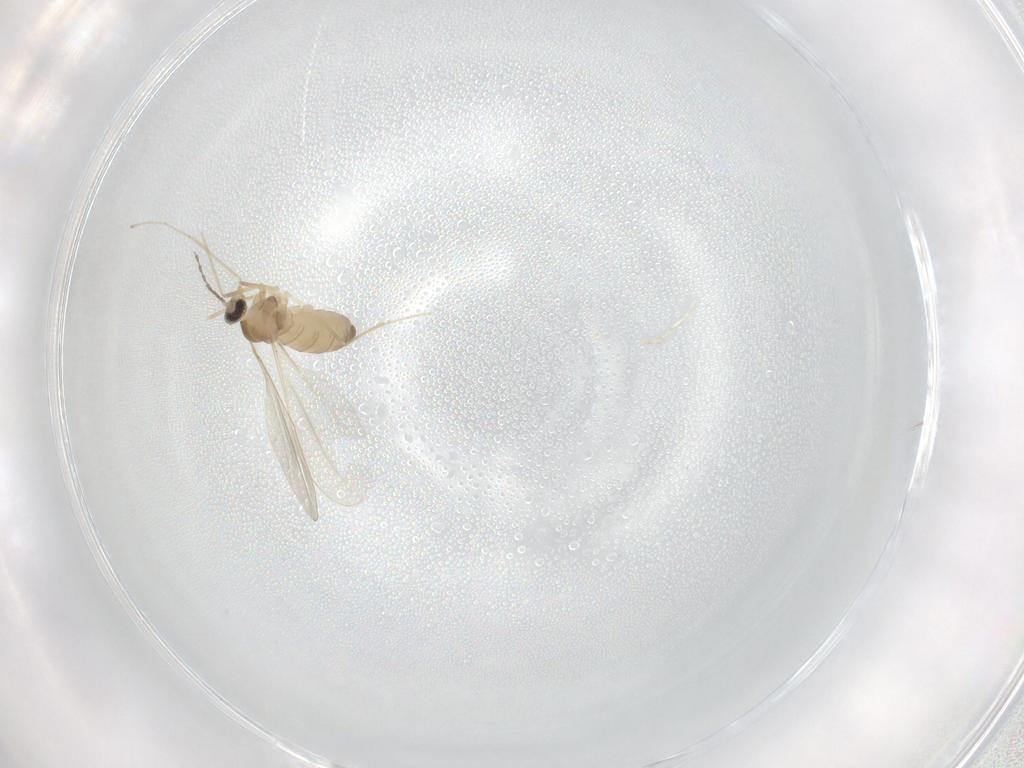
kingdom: Animalia
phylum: Arthropoda
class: Insecta
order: Diptera
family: Cecidomyiidae
